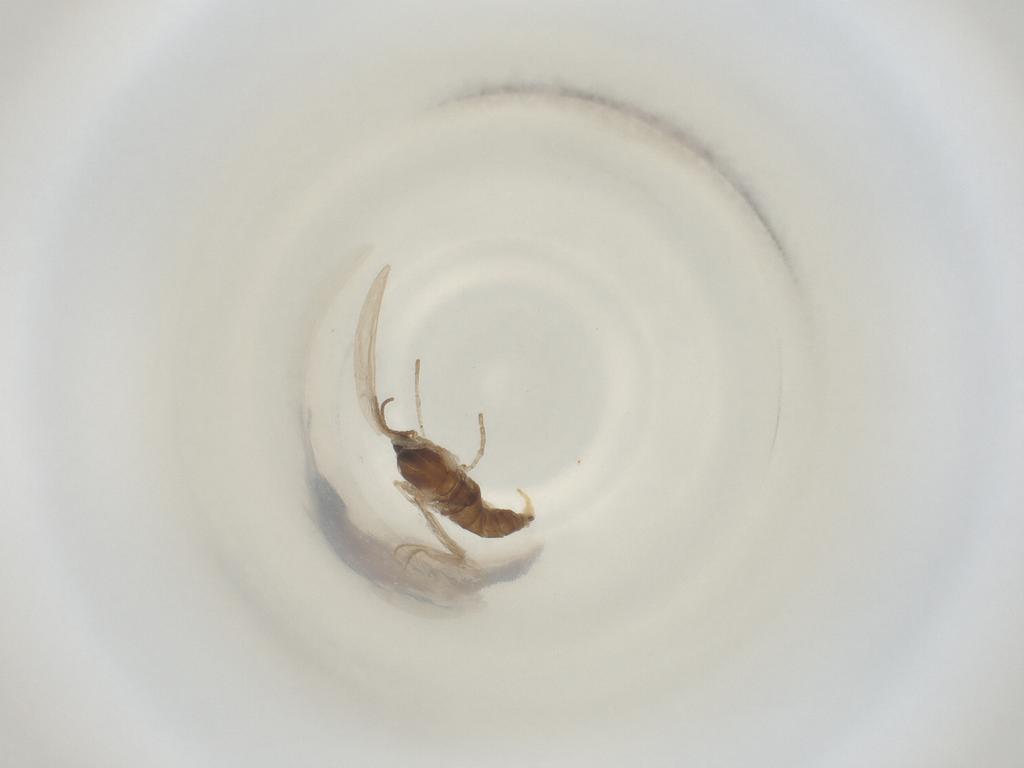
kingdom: Animalia
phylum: Arthropoda
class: Insecta
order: Diptera
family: Cecidomyiidae
